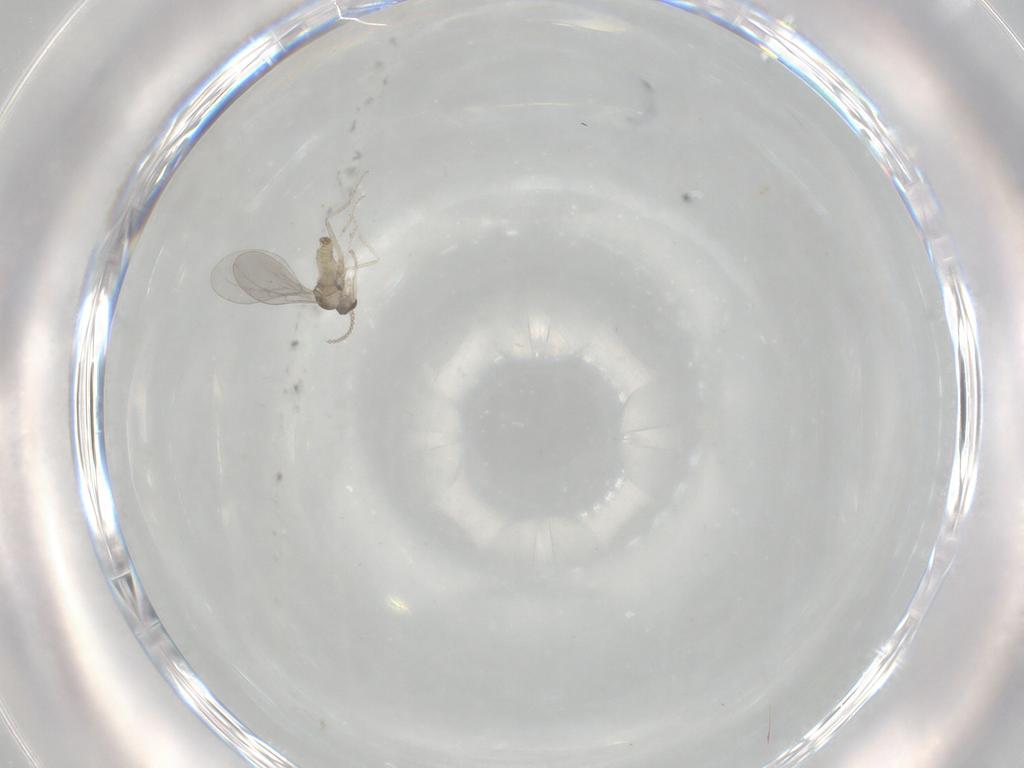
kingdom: Animalia
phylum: Arthropoda
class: Insecta
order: Diptera
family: Cecidomyiidae
